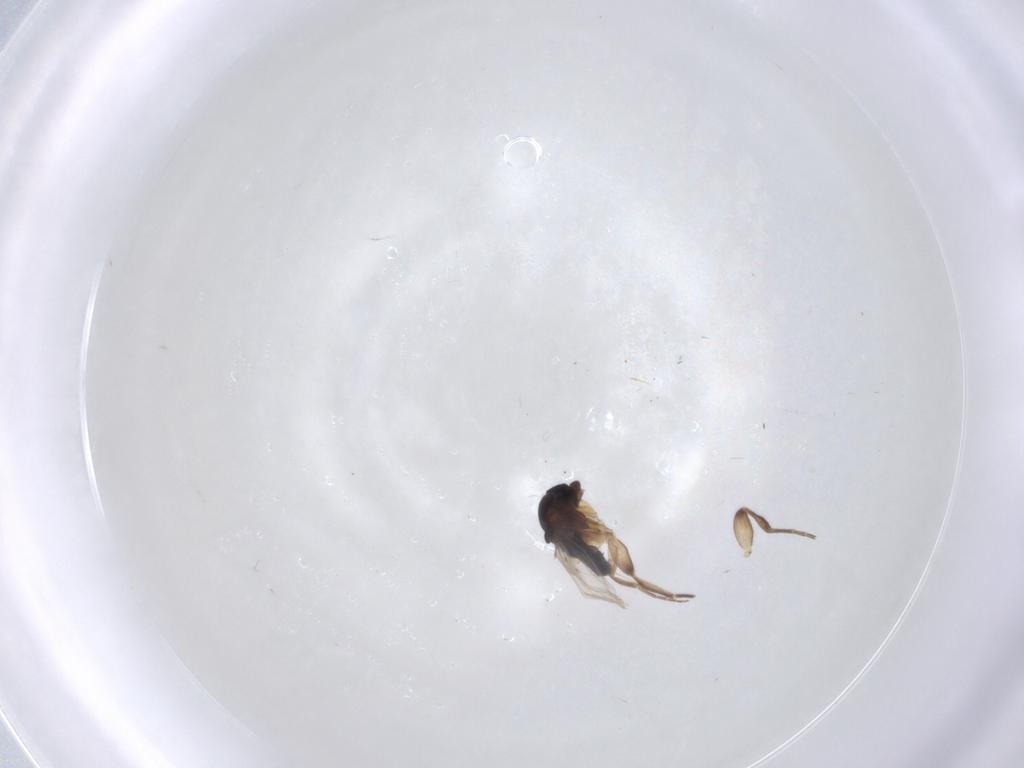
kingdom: Animalia
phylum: Arthropoda
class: Insecta
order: Diptera
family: Phoridae
